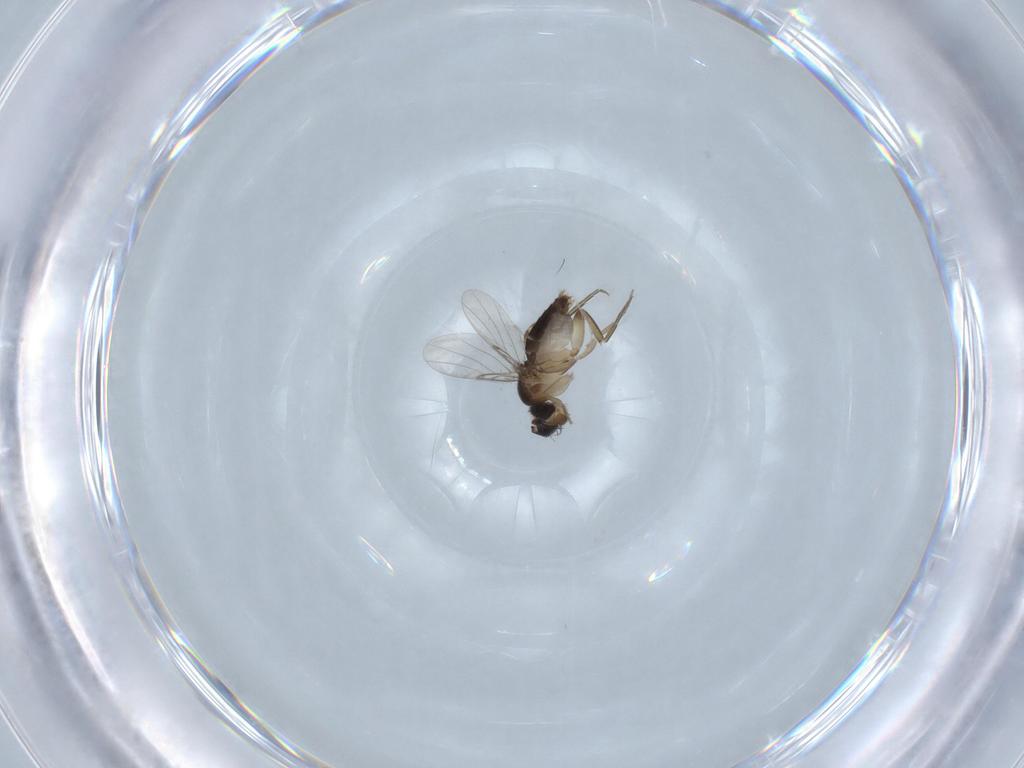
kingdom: Animalia
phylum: Arthropoda
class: Insecta
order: Diptera
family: Cecidomyiidae
